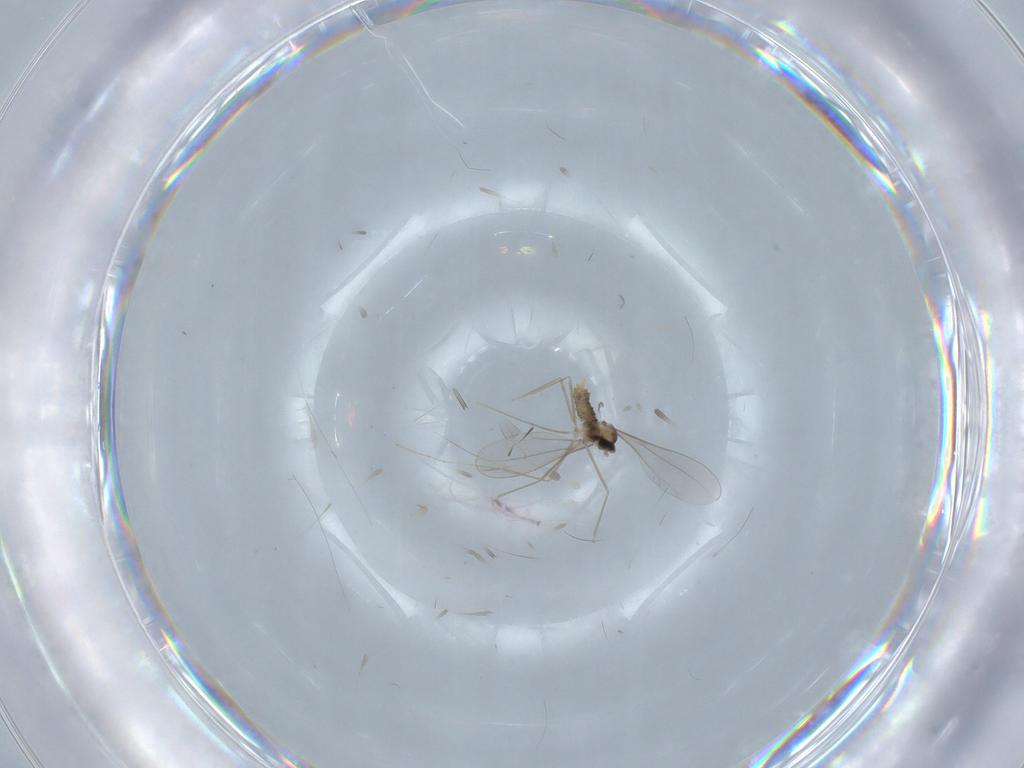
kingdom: Animalia
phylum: Arthropoda
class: Insecta
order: Diptera
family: Cecidomyiidae
